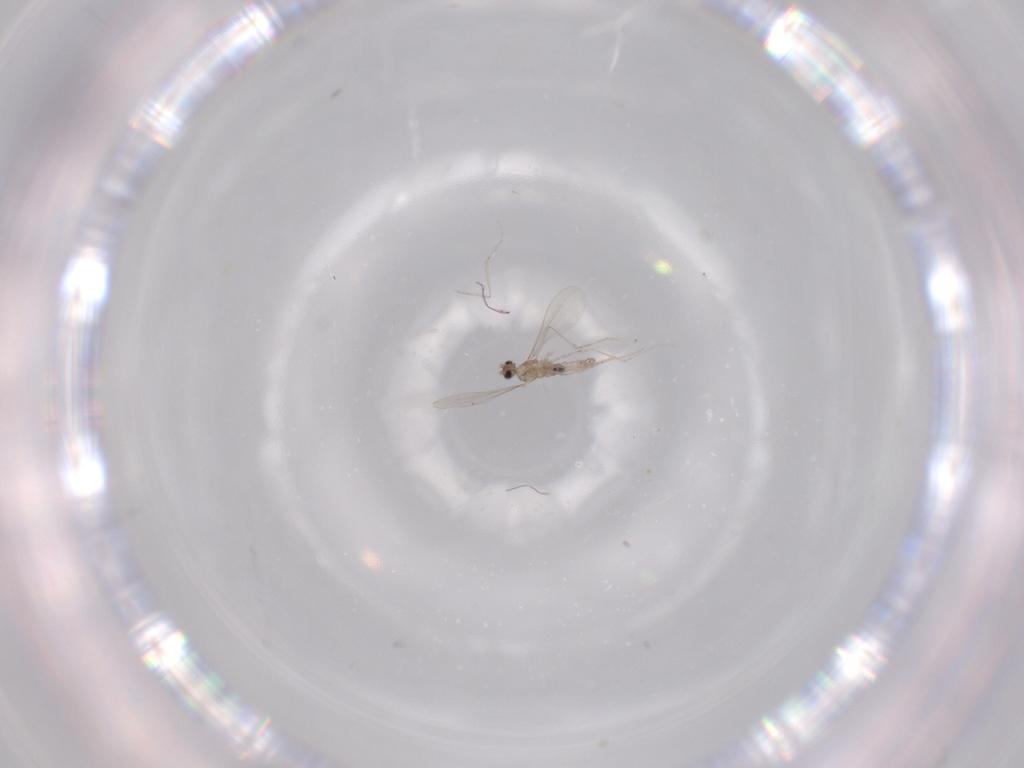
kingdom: Animalia
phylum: Arthropoda
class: Insecta
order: Diptera
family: Cecidomyiidae
